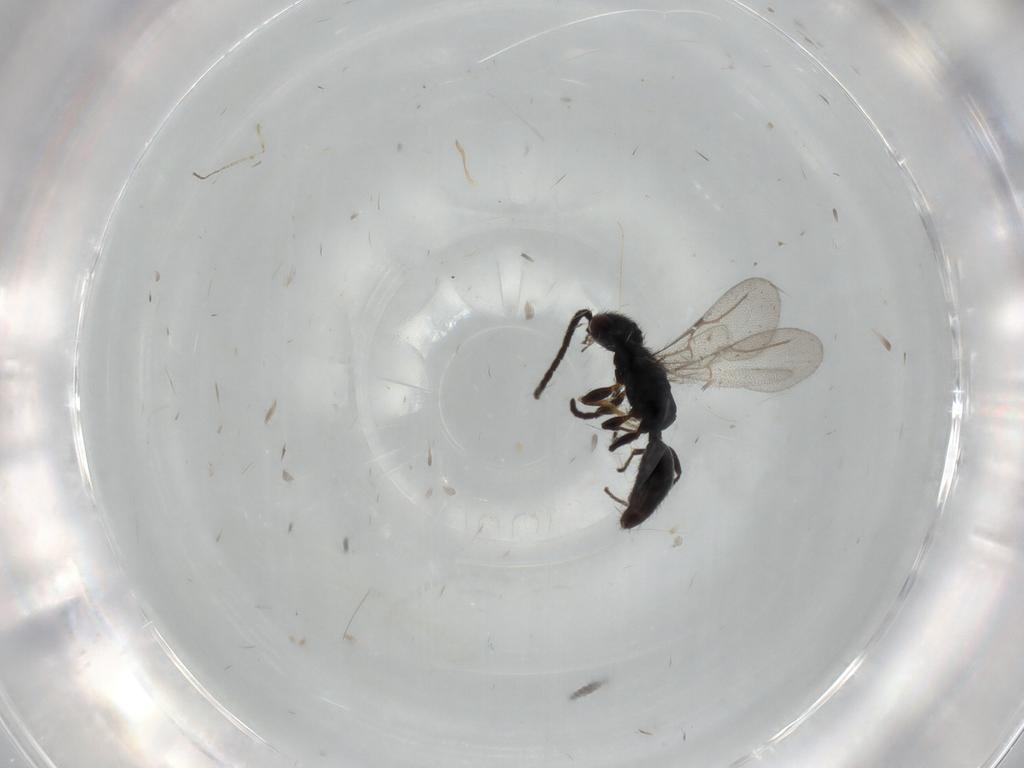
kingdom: Animalia
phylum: Arthropoda
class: Insecta
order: Hymenoptera
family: Bethylidae
